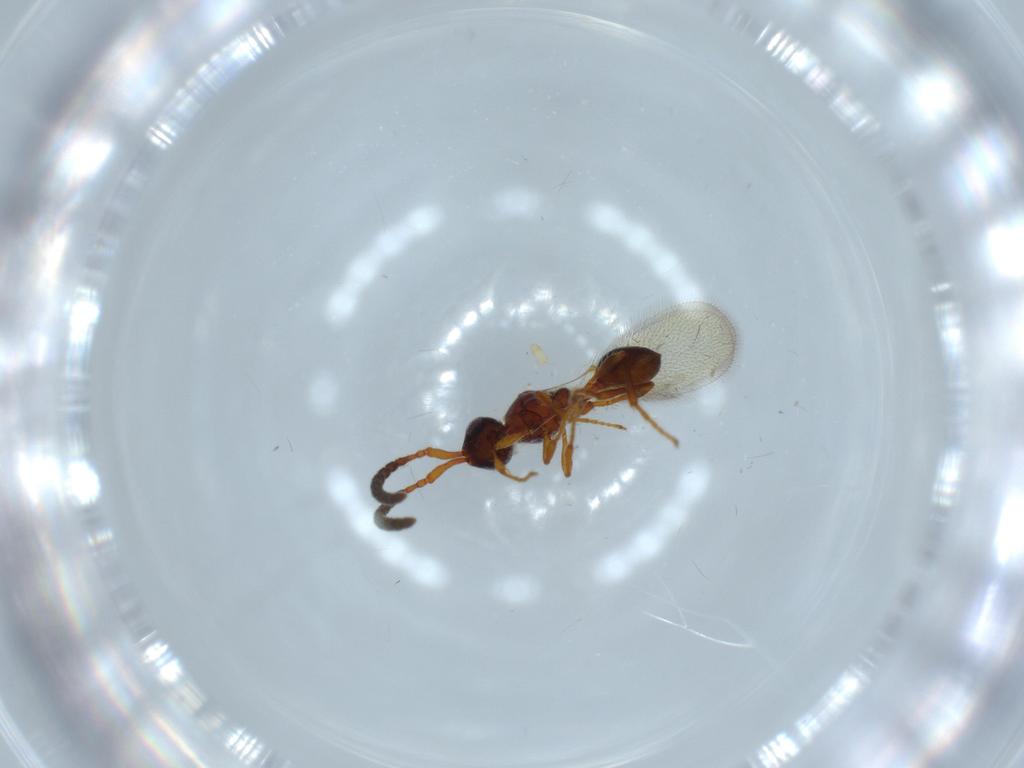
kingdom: Animalia
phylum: Arthropoda
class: Insecta
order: Hymenoptera
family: Diapriidae
